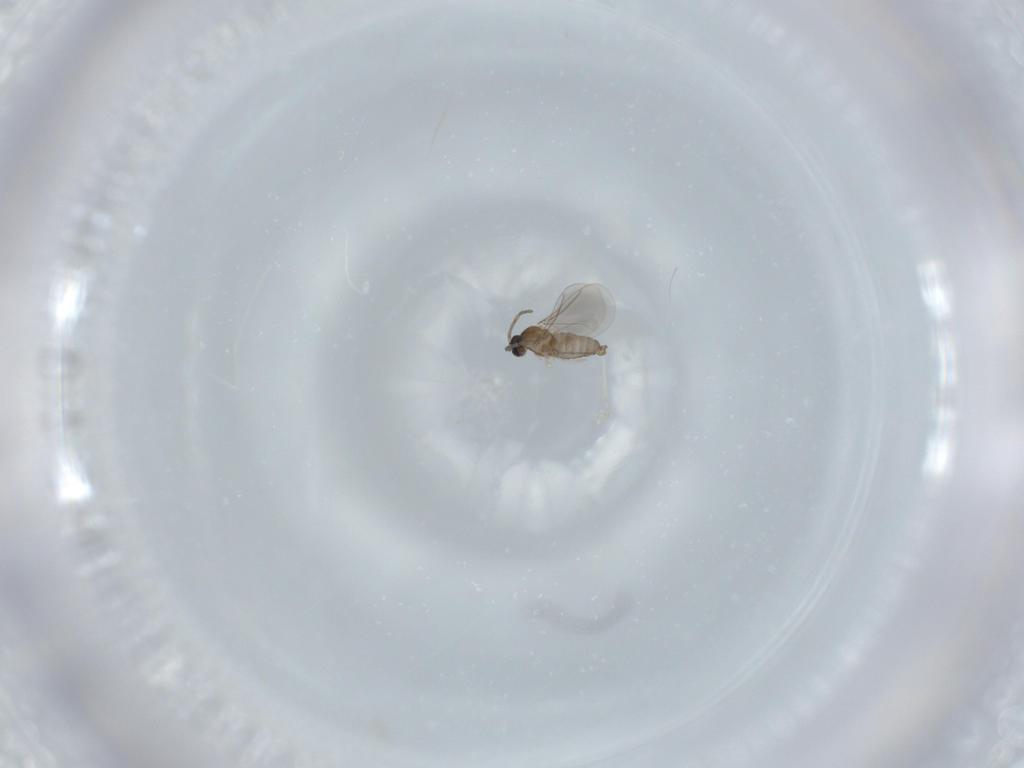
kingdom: Animalia
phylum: Arthropoda
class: Insecta
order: Diptera
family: Cecidomyiidae
